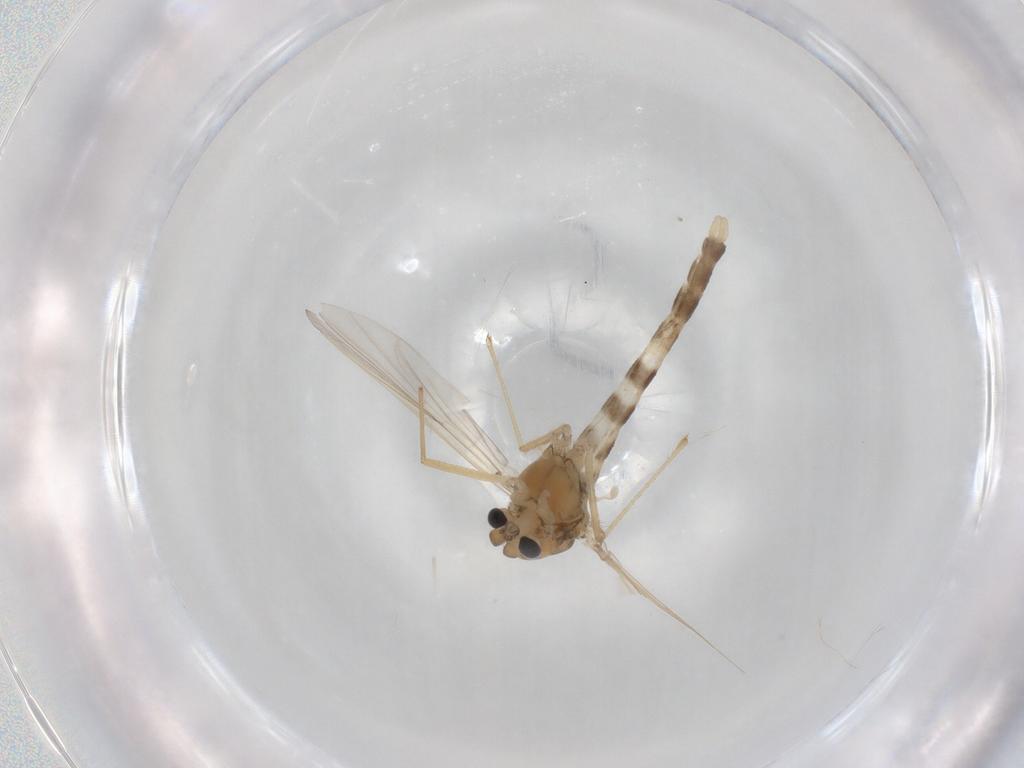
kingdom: Animalia
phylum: Arthropoda
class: Insecta
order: Diptera
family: Chironomidae
